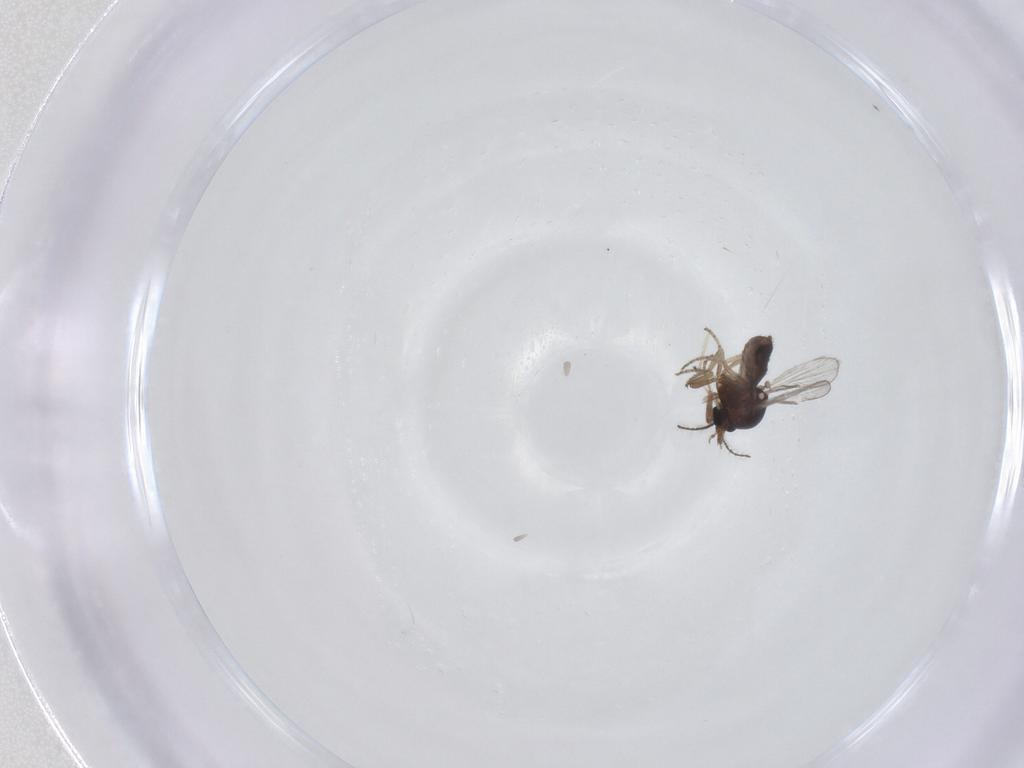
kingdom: Animalia
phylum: Arthropoda
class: Insecta
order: Diptera
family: Ceratopogonidae
